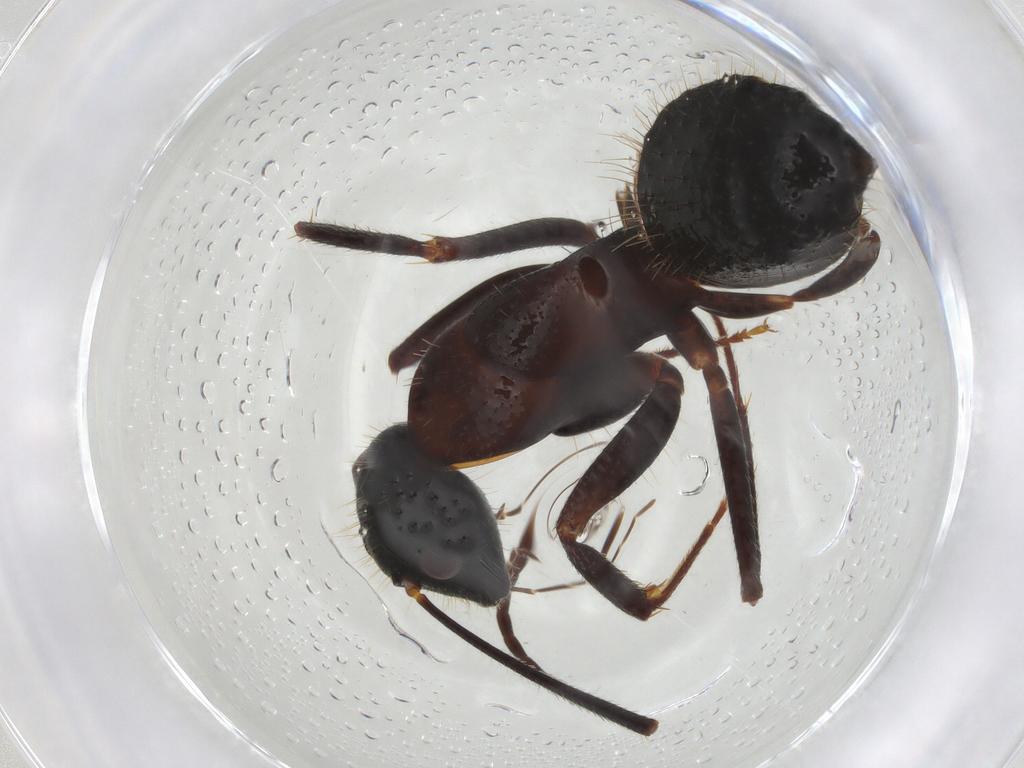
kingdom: Animalia
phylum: Arthropoda
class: Insecta
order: Hymenoptera
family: Formicidae
